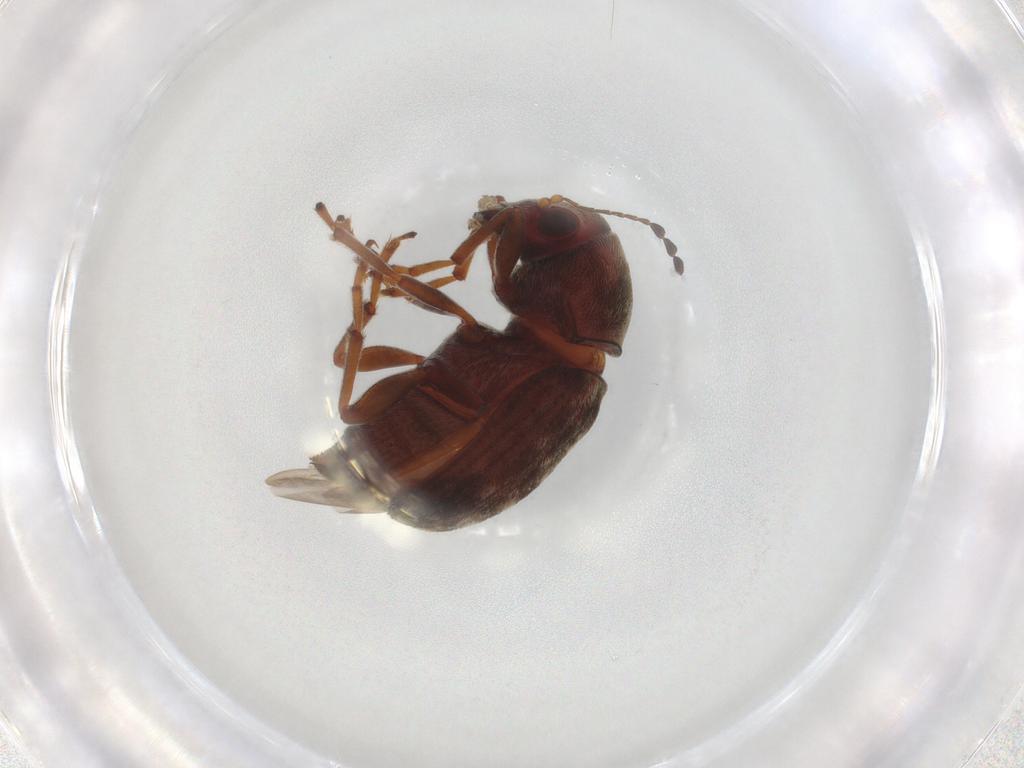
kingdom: Animalia
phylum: Arthropoda
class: Insecta
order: Coleoptera
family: Anthribidae
